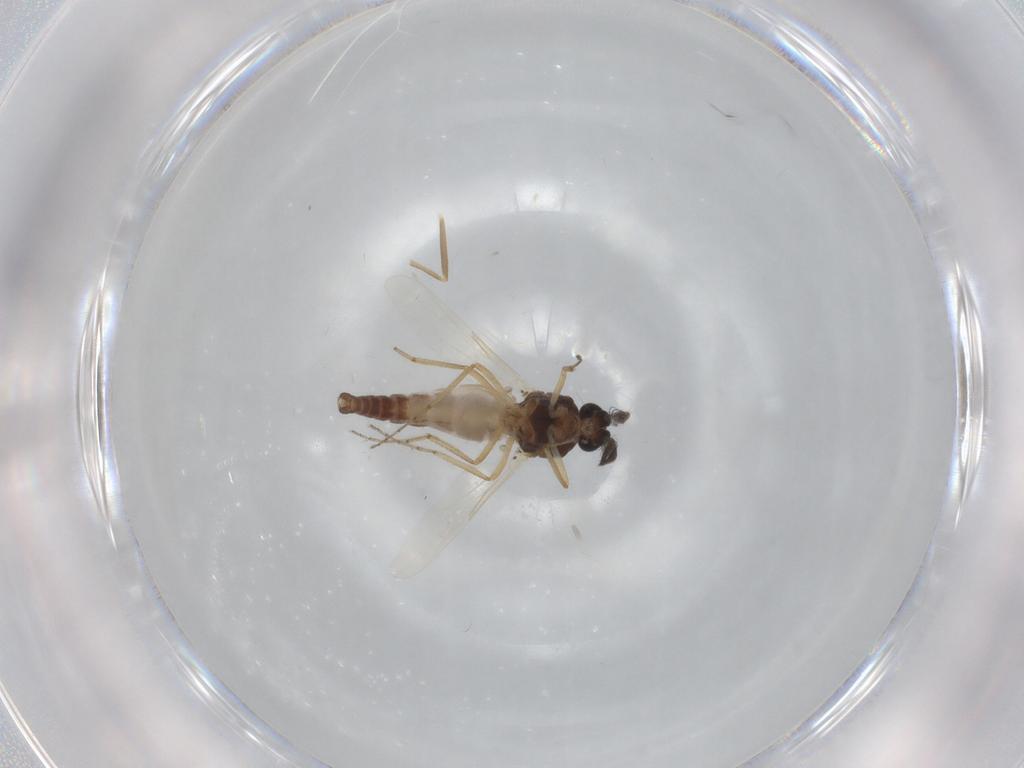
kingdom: Animalia
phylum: Arthropoda
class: Insecta
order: Diptera
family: Ceratopogonidae
